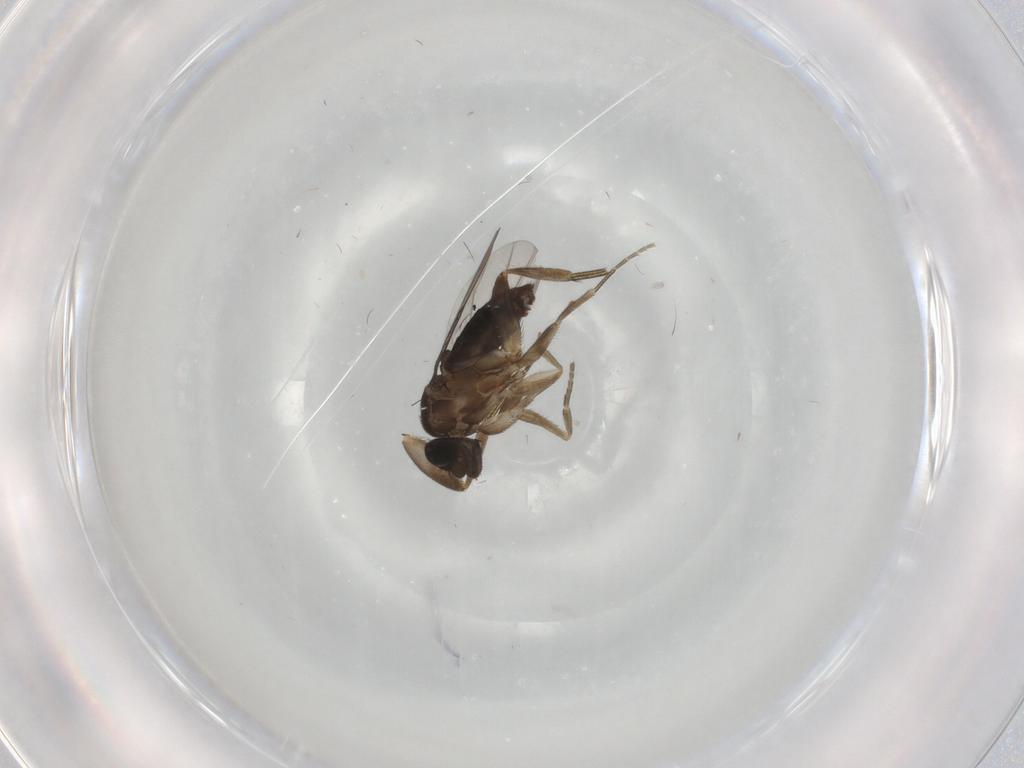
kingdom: Animalia
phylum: Arthropoda
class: Insecta
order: Diptera
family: Phoridae
